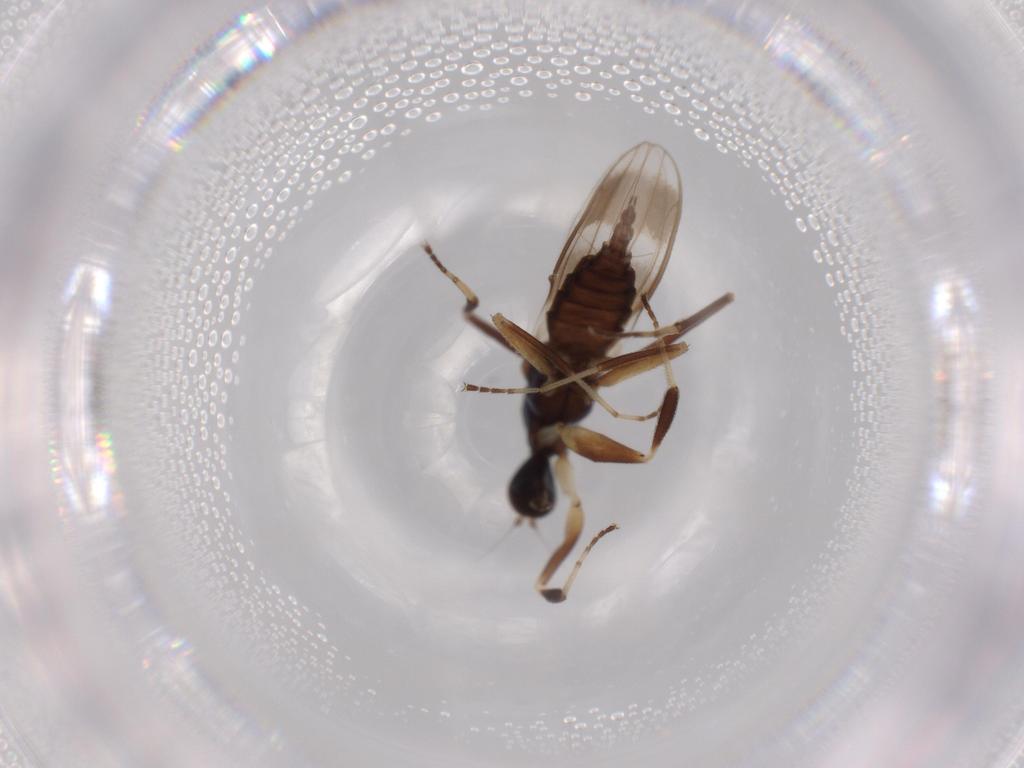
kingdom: Animalia
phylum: Arthropoda
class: Insecta
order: Diptera
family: Hybotidae
